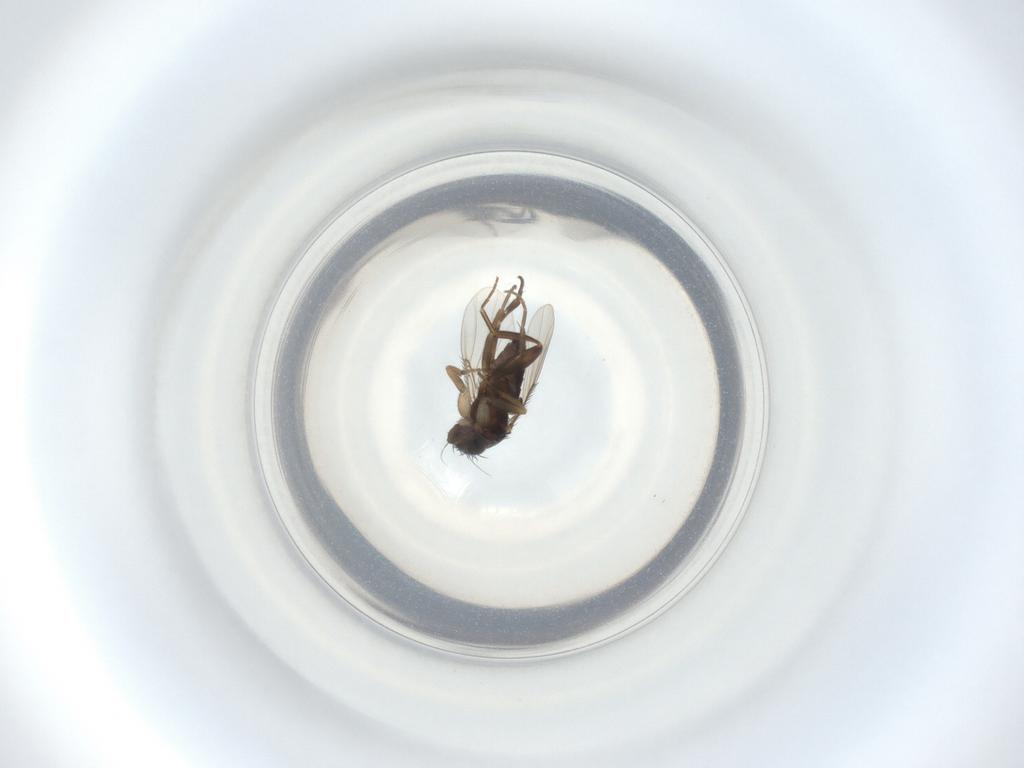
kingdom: Animalia
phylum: Arthropoda
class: Insecta
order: Diptera
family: Phoridae
